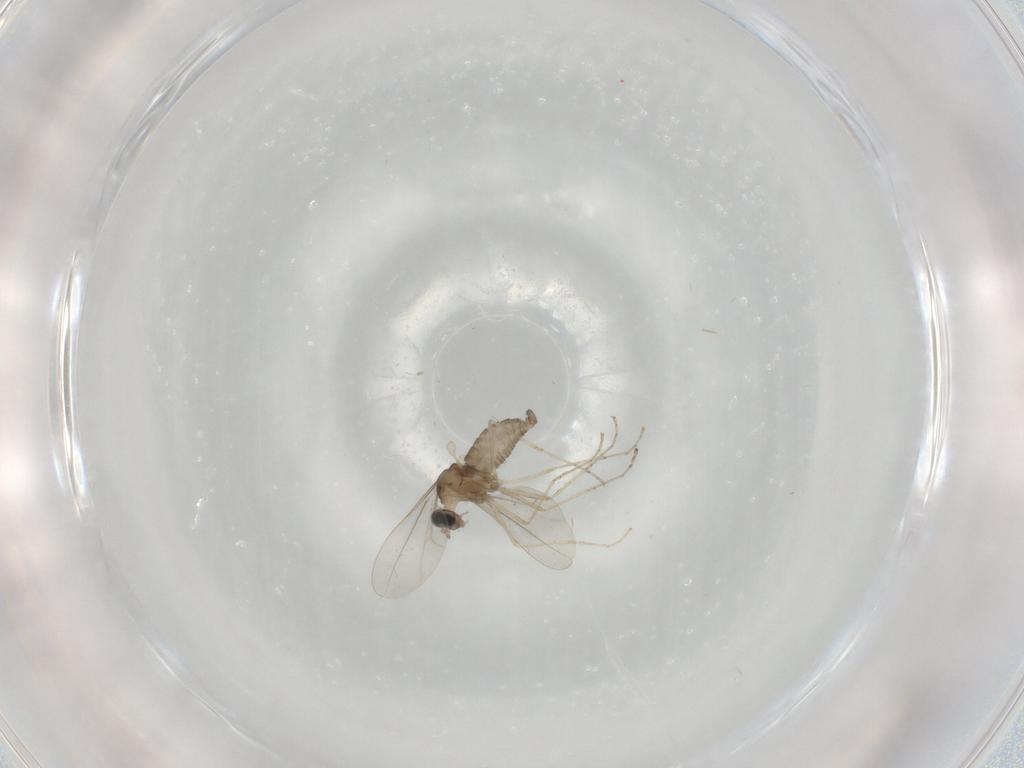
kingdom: Animalia
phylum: Arthropoda
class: Insecta
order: Diptera
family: Cecidomyiidae
